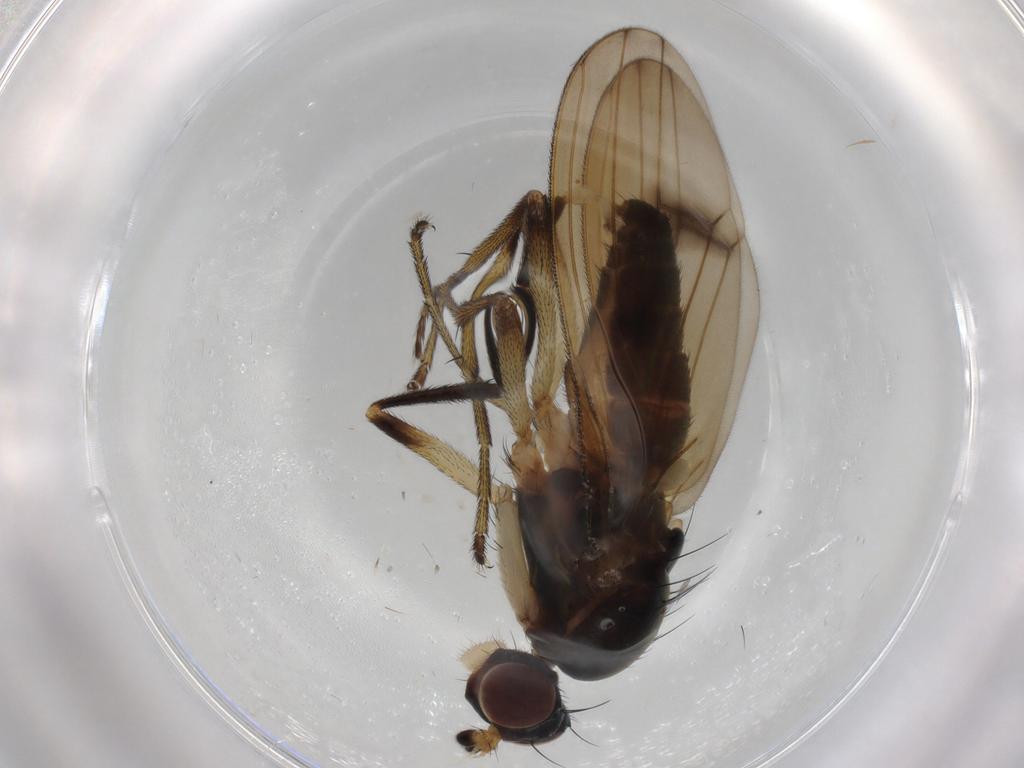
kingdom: Animalia
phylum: Arthropoda
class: Insecta
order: Diptera
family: Sciomyzidae
